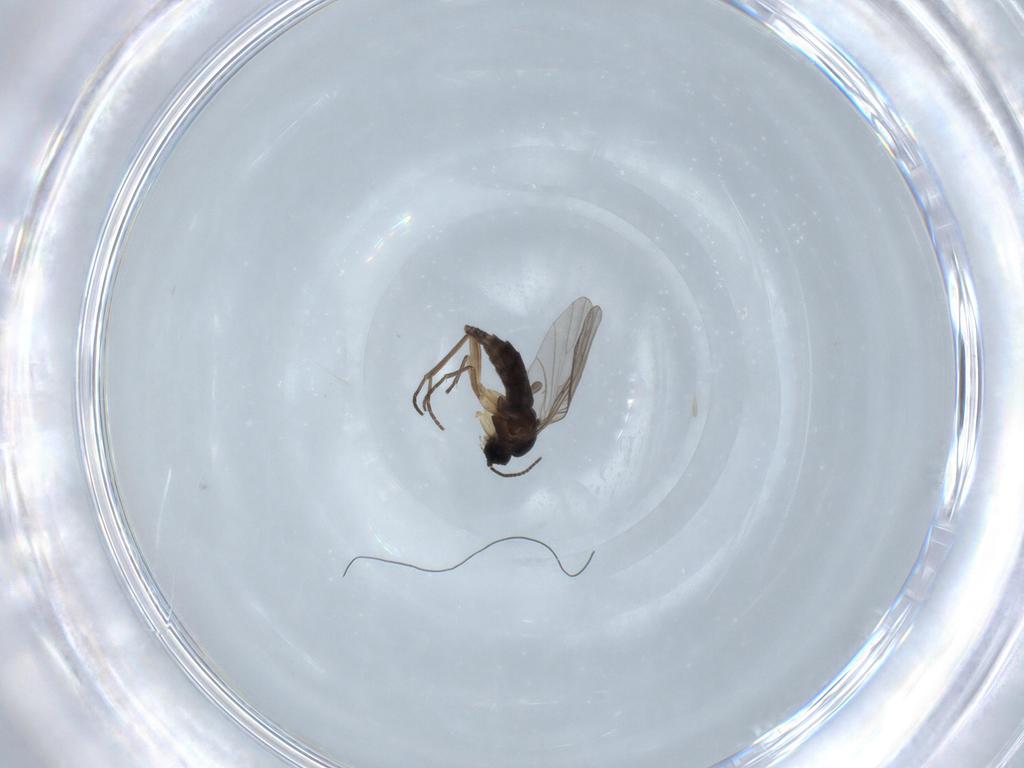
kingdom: Animalia
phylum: Arthropoda
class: Insecta
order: Diptera
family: Sciaridae
